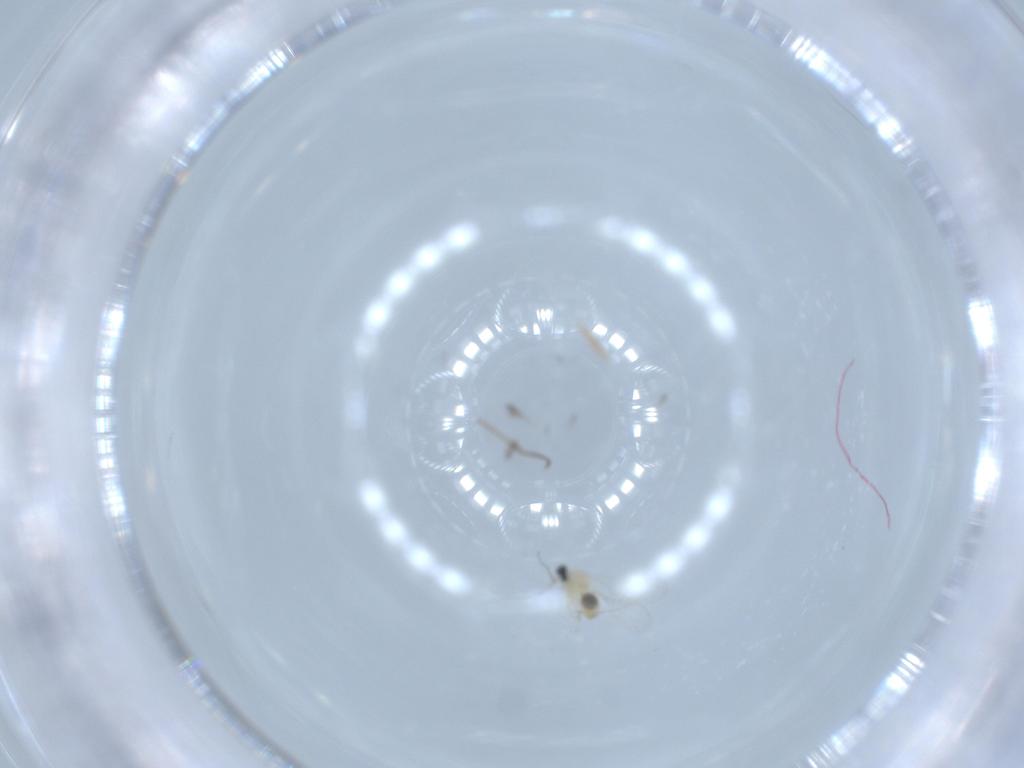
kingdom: Animalia
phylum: Arthropoda
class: Insecta
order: Diptera
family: Cecidomyiidae
